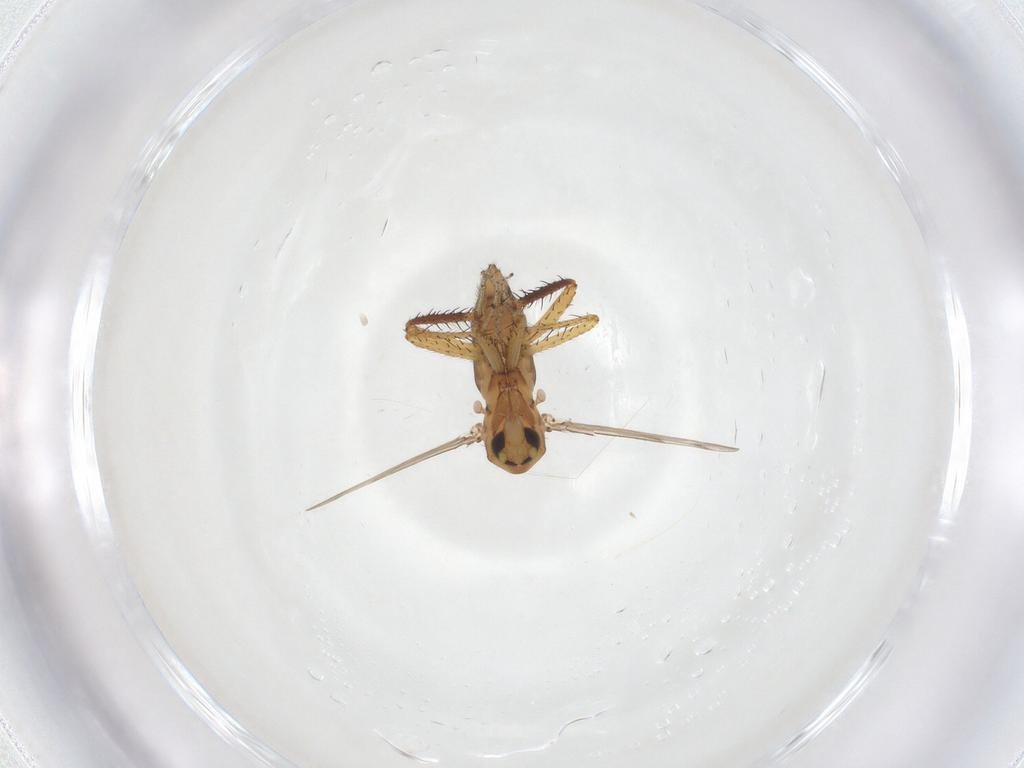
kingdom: Animalia
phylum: Arthropoda
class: Insecta
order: Diptera
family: Ceratopogonidae
